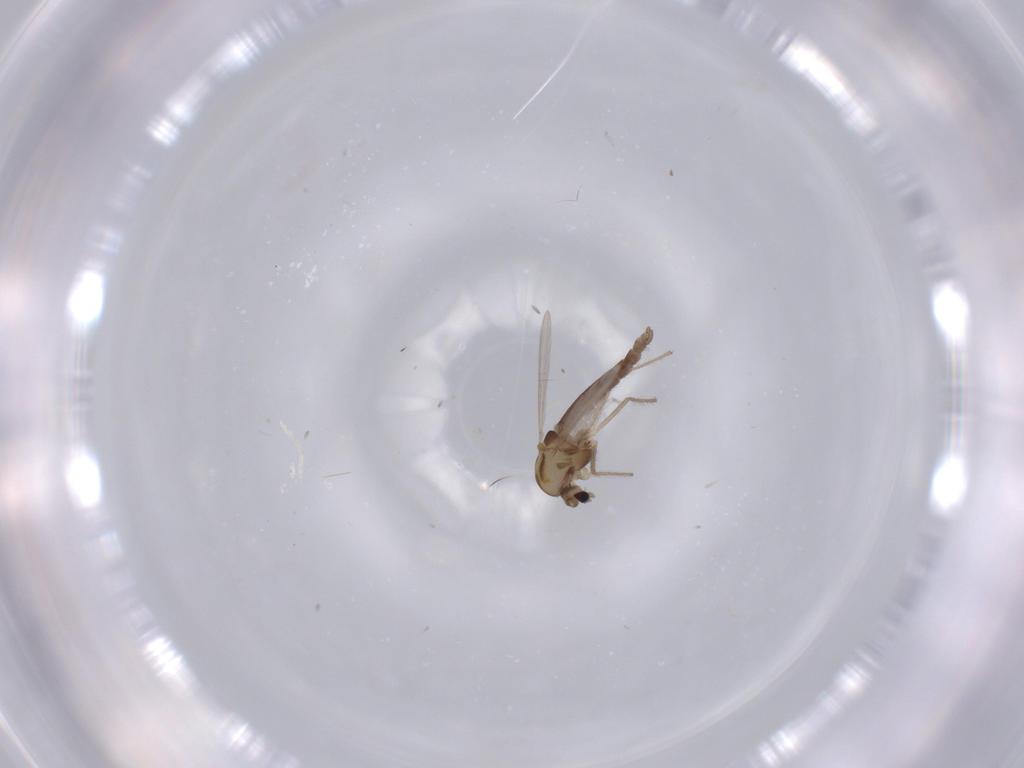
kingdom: Animalia
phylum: Arthropoda
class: Insecta
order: Diptera
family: Chironomidae
